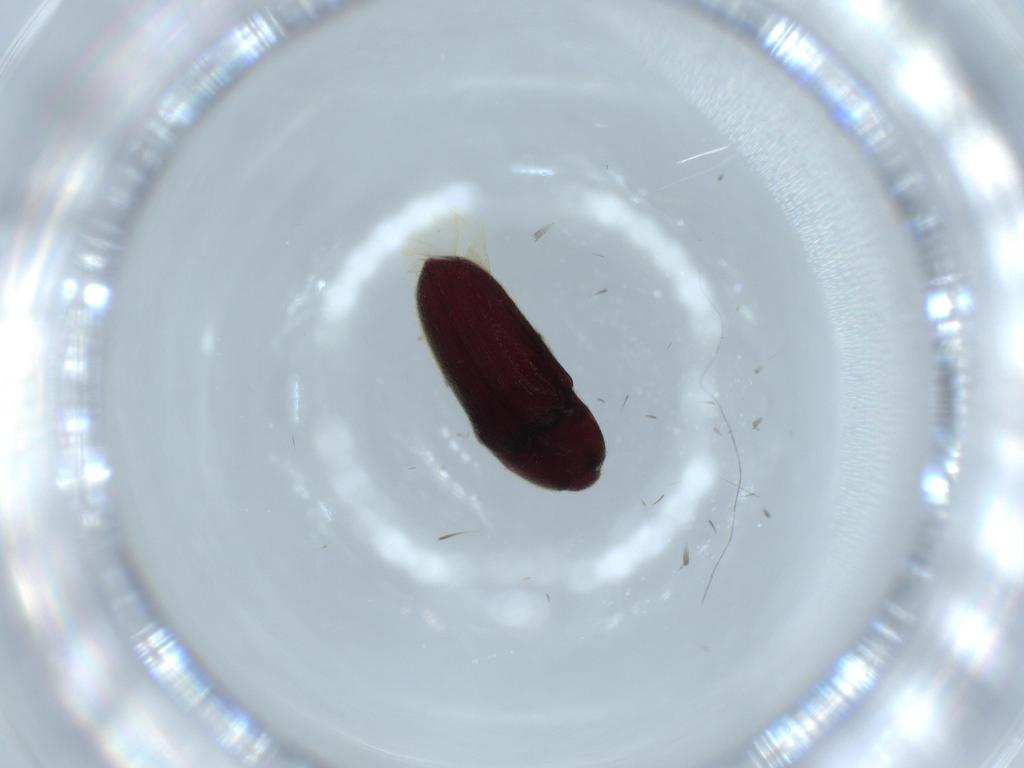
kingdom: Animalia
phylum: Arthropoda
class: Insecta
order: Coleoptera
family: Throscidae
